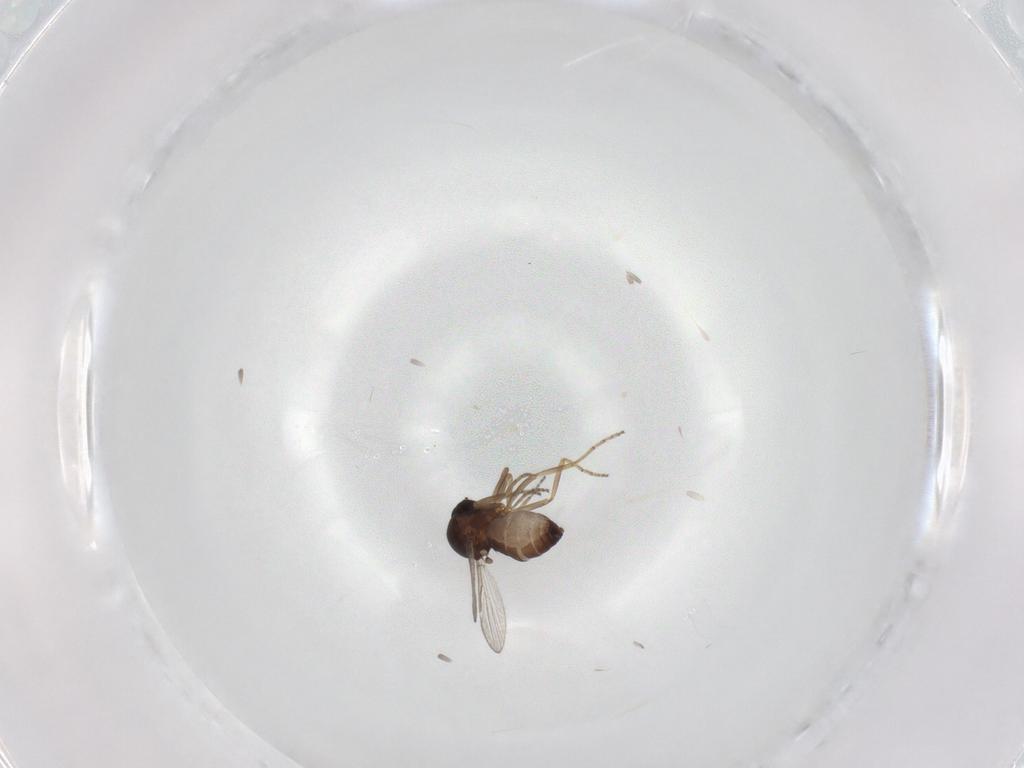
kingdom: Animalia
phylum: Arthropoda
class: Insecta
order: Diptera
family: Ceratopogonidae
